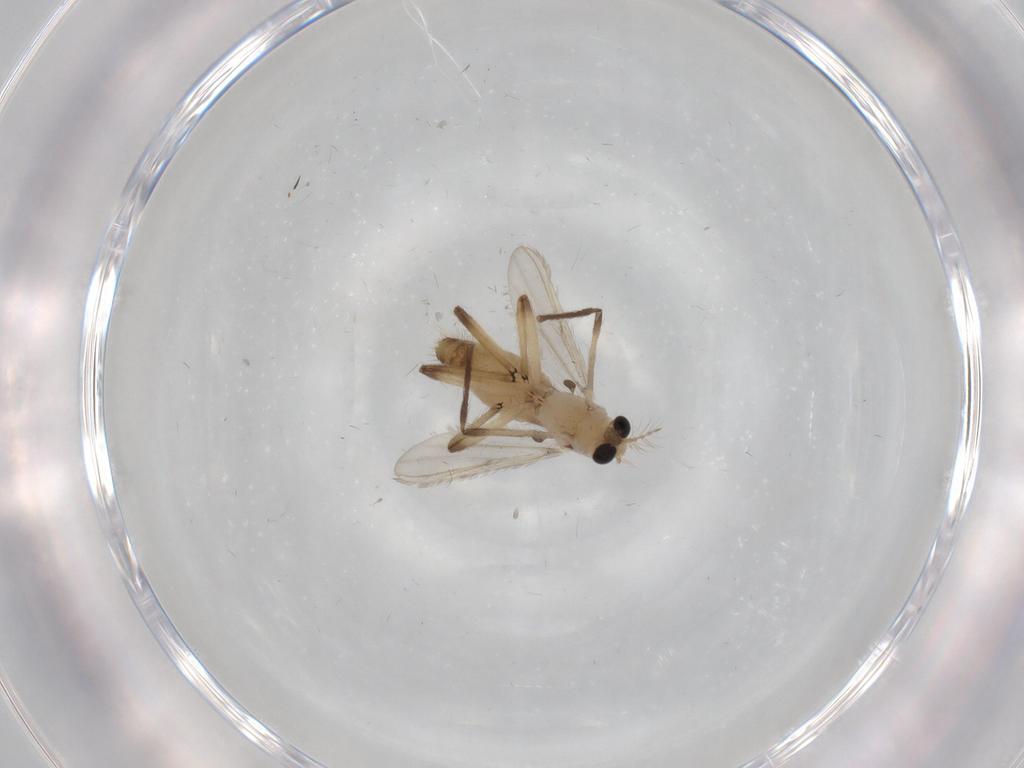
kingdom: Animalia
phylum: Arthropoda
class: Insecta
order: Diptera
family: Chironomidae
